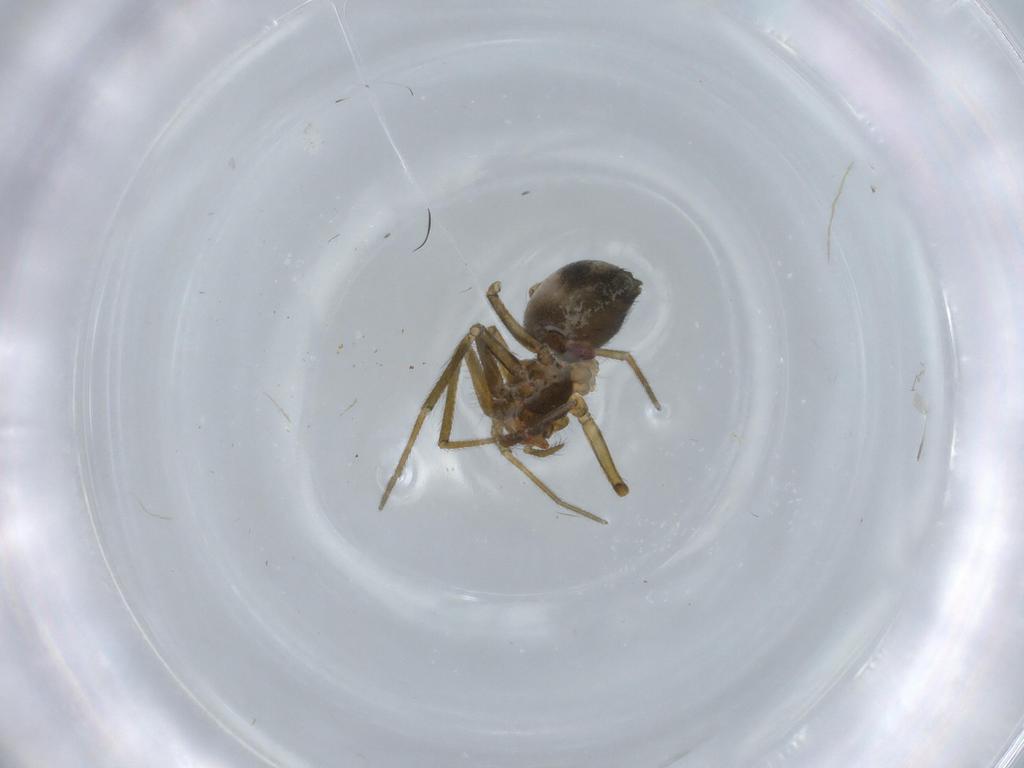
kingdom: Animalia
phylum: Arthropoda
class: Arachnida
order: Araneae
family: Linyphiidae
